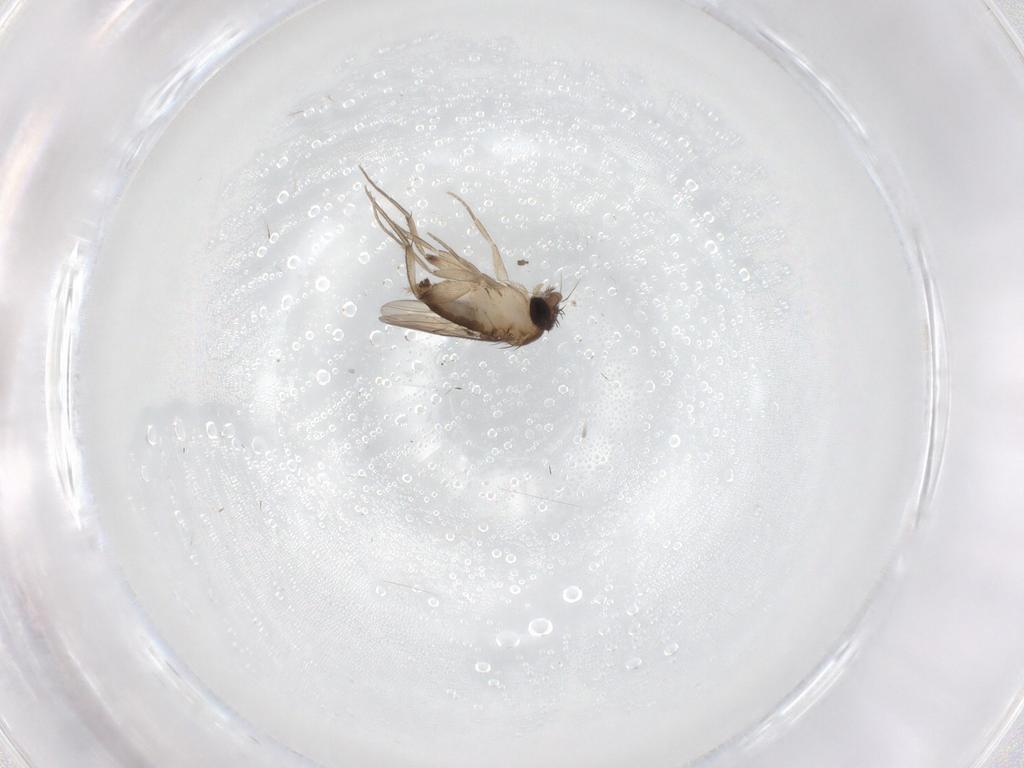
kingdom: Animalia
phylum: Arthropoda
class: Insecta
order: Diptera
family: Phoridae
